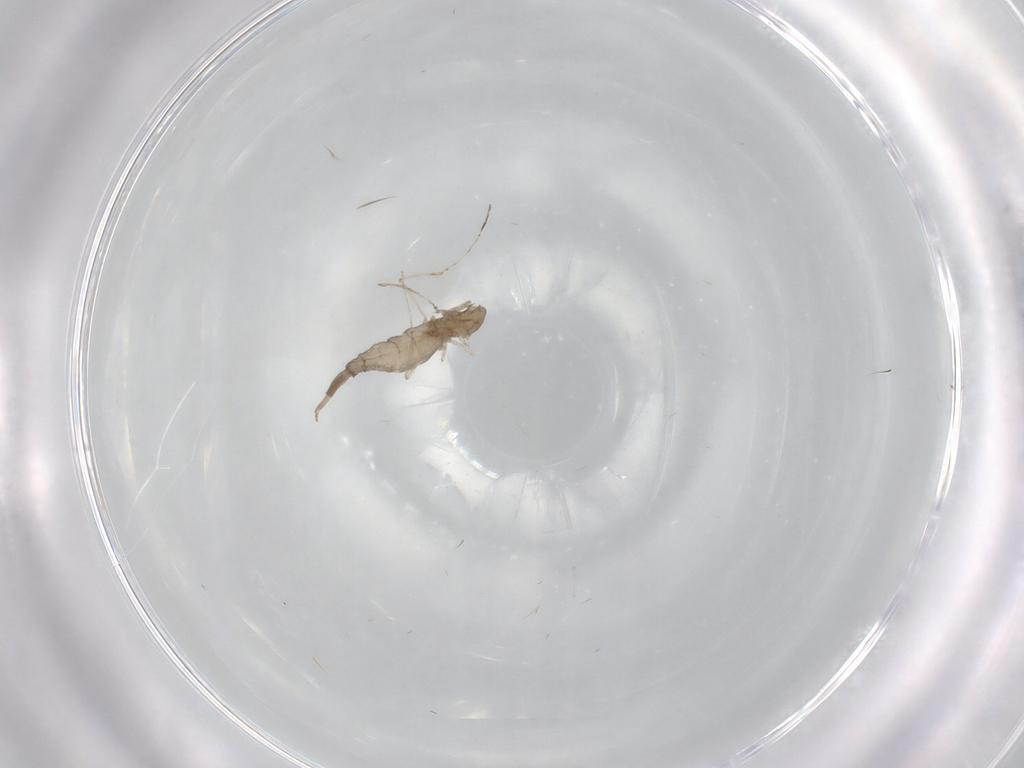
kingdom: Animalia
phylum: Arthropoda
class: Insecta
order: Diptera
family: Cecidomyiidae
